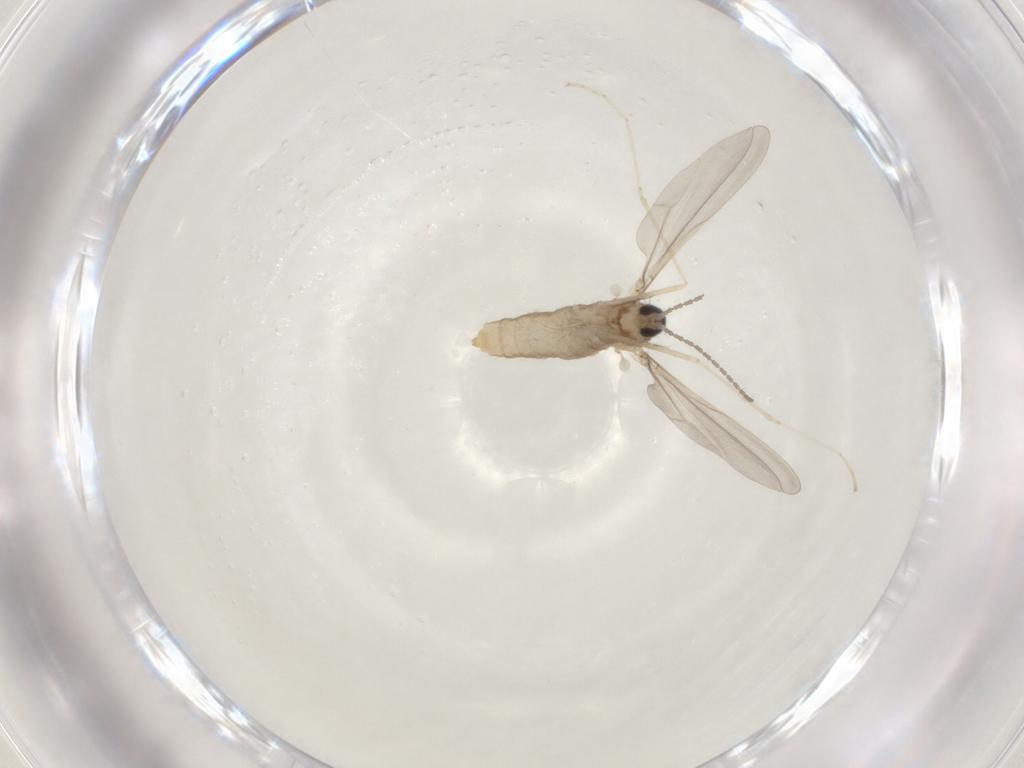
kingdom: Animalia
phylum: Arthropoda
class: Insecta
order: Diptera
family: Cecidomyiidae
